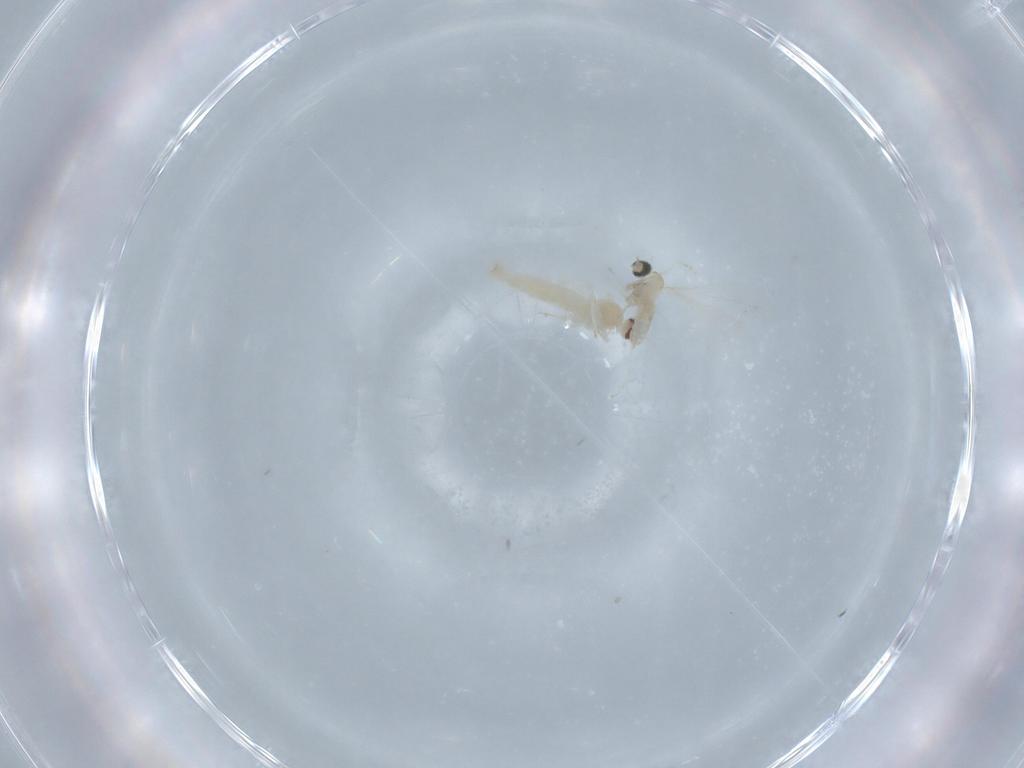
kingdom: Animalia
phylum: Arthropoda
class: Insecta
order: Diptera
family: Cecidomyiidae
